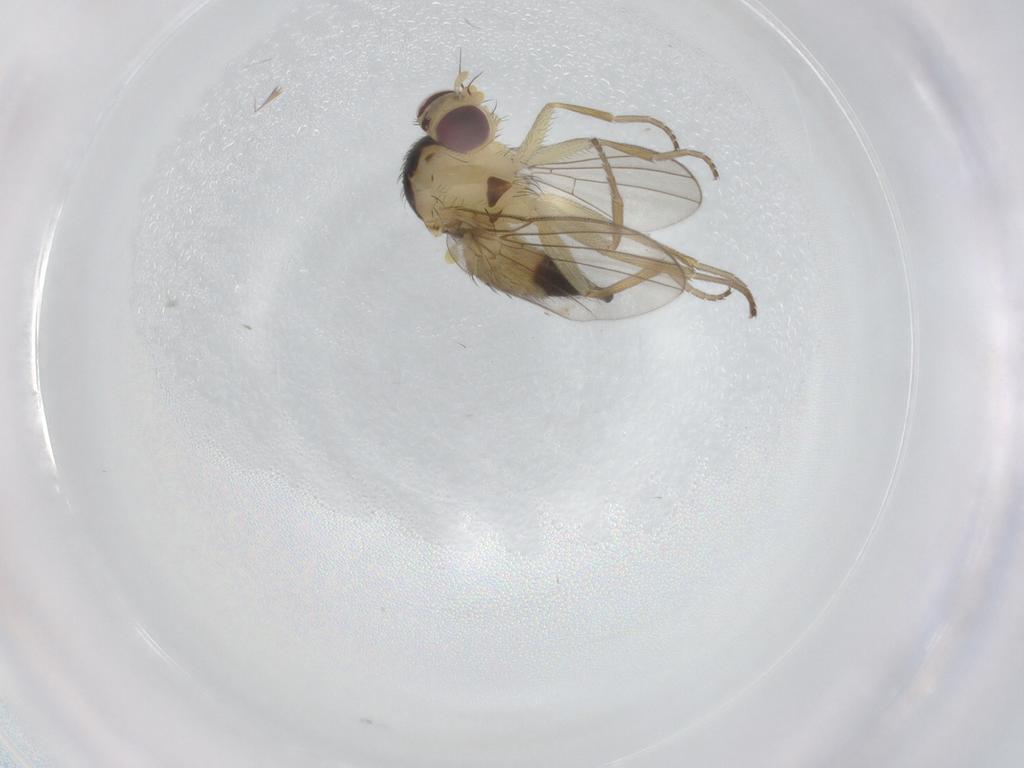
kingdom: Animalia
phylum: Arthropoda
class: Insecta
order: Diptera
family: Agromyzidae
